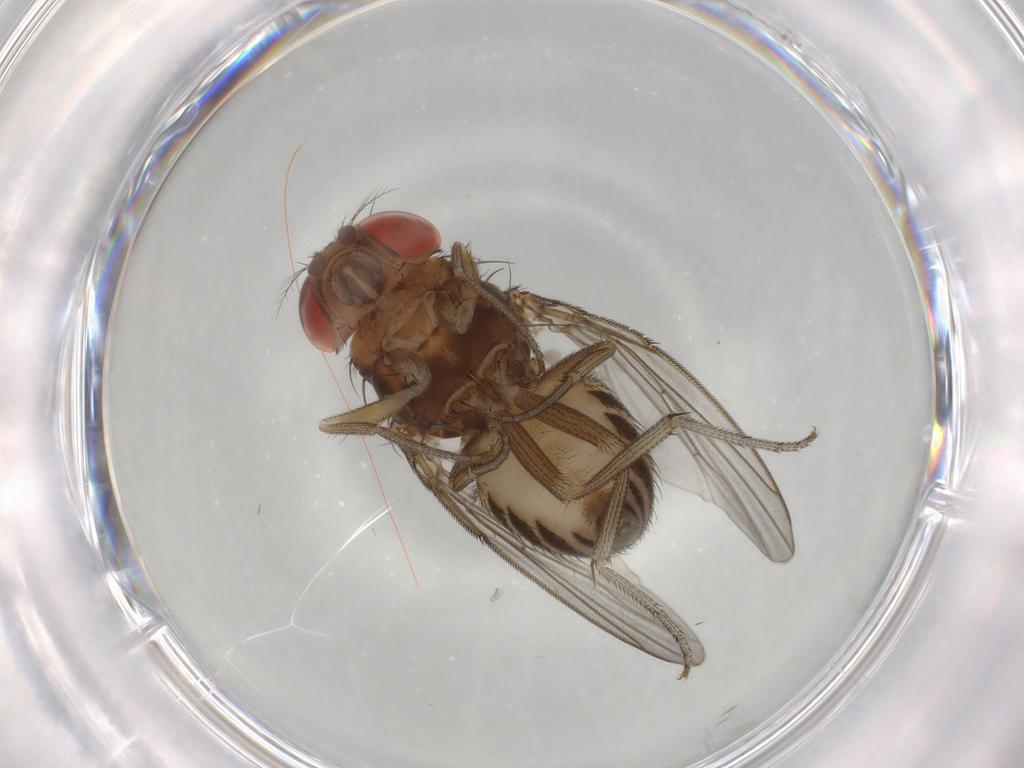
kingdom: Animalia
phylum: Arthropoda
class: Insecta
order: Diptera
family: Drosophilidae
